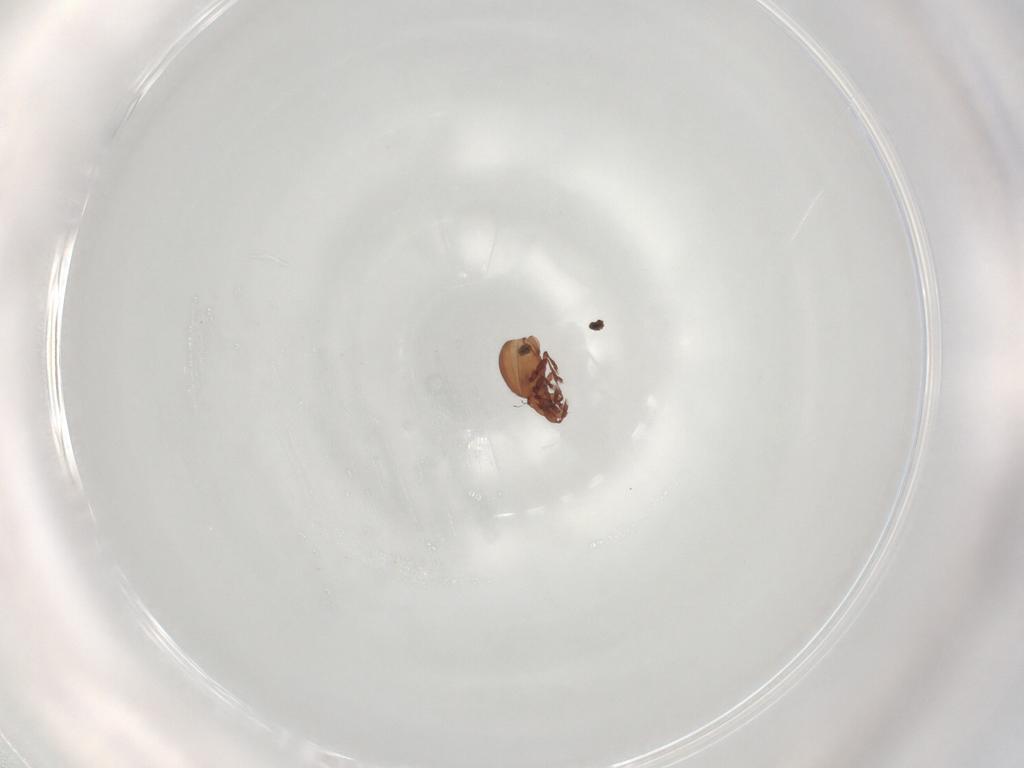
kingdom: Animalia
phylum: Arthropoda
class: Arachnida
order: Sarcoptiformes
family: Eremaeidae
